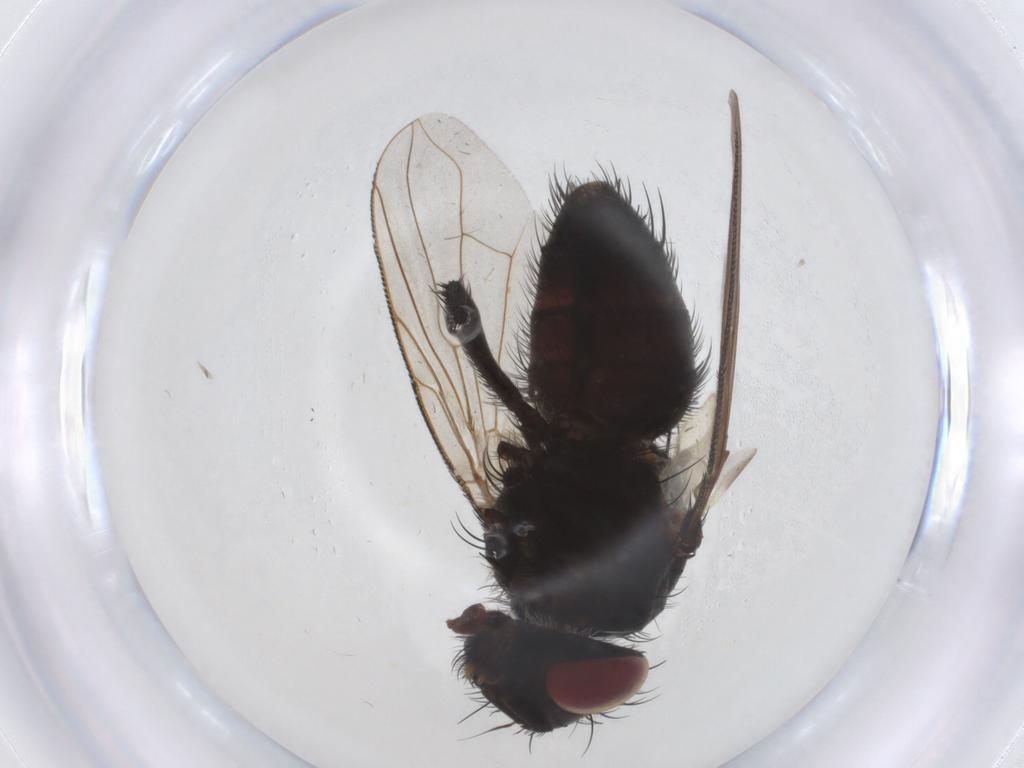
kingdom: Animalia
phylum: Arthropoda
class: Insecta
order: Diptera
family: Tachinidae
